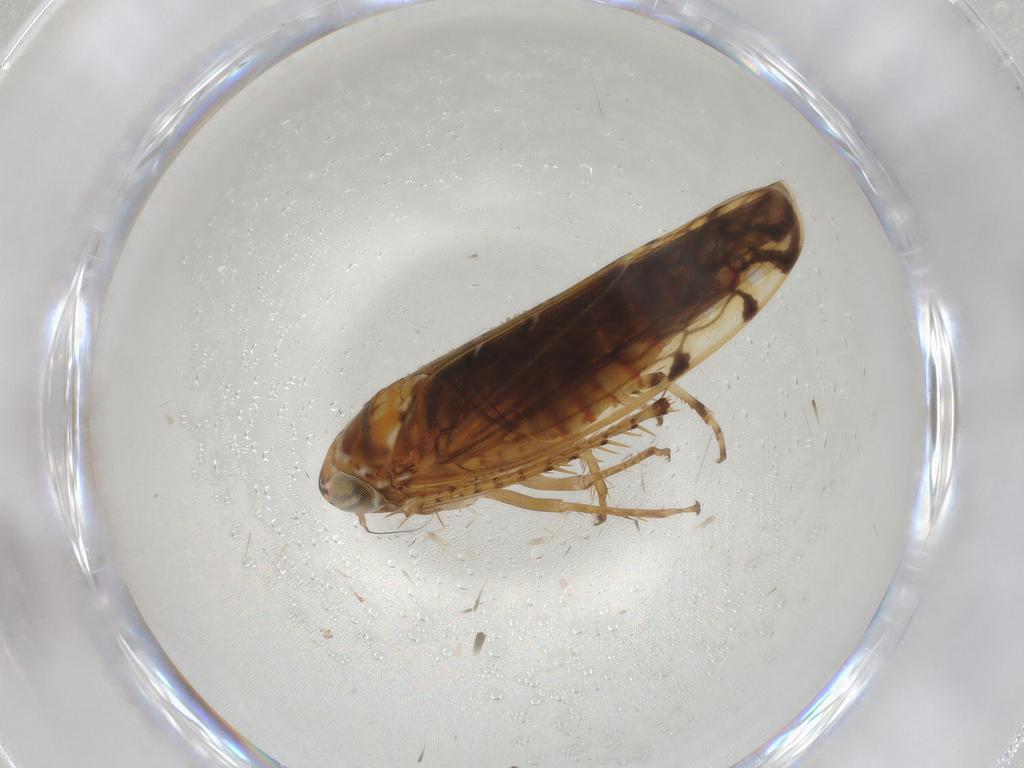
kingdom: Animalia
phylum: Arthropoda
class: Insecta
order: Hemiptera
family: Cicadellidae
